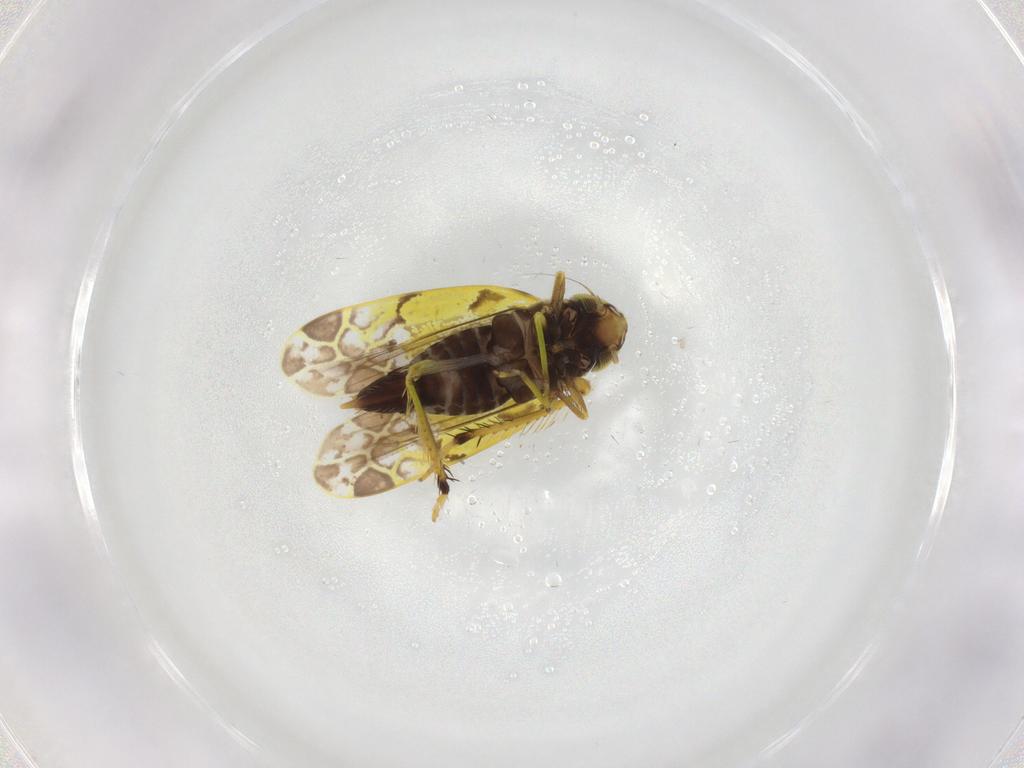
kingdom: Animalia
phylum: Arthropoda
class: Insecta
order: Hemiptera
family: Cicadellidae
